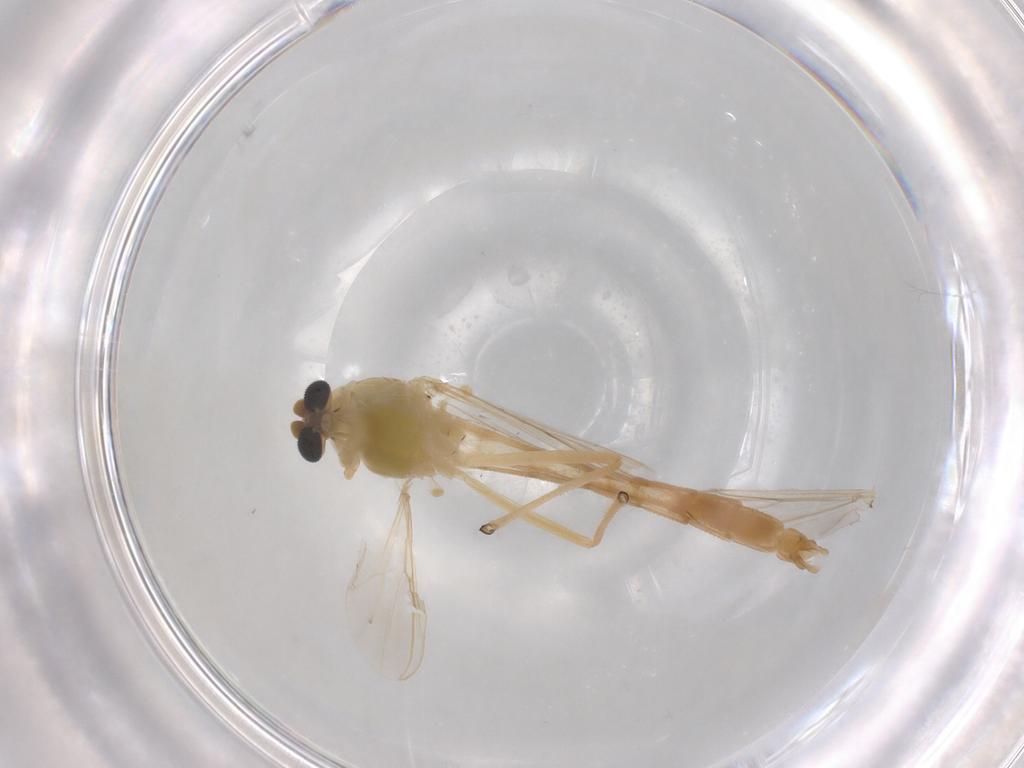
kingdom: Animalia
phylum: Arthropoda
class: Insecta
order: Diptera
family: Chironomidae
